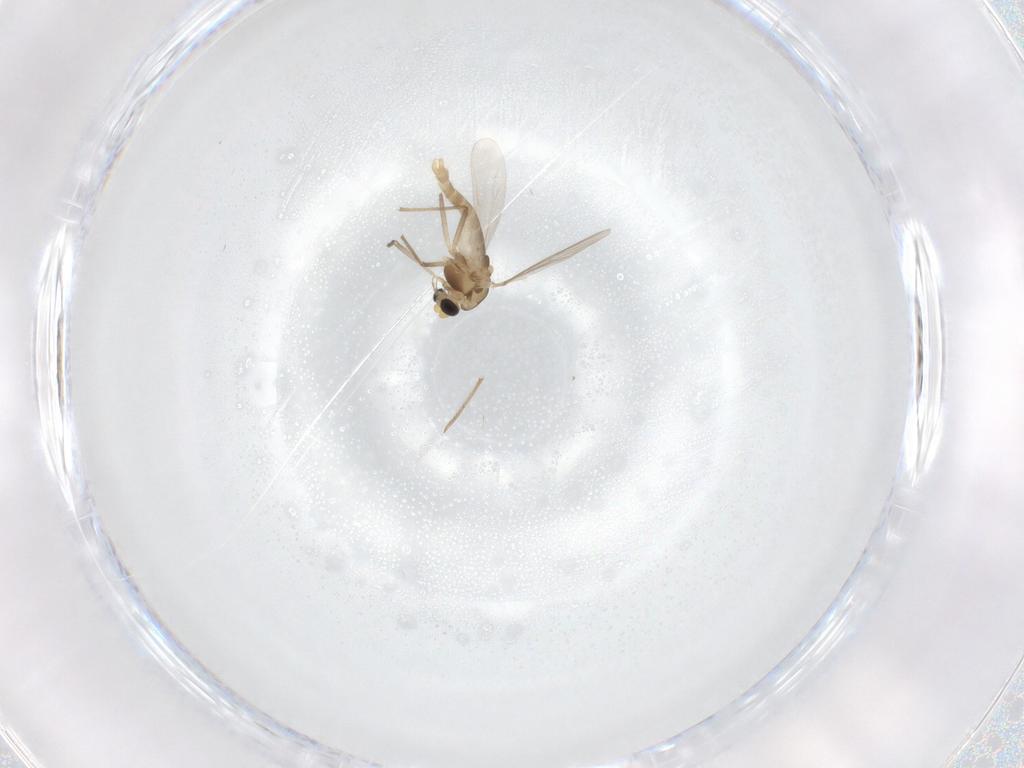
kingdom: Animalia
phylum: Arthropoda
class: Insecta
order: Diptera
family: Chironomidae
